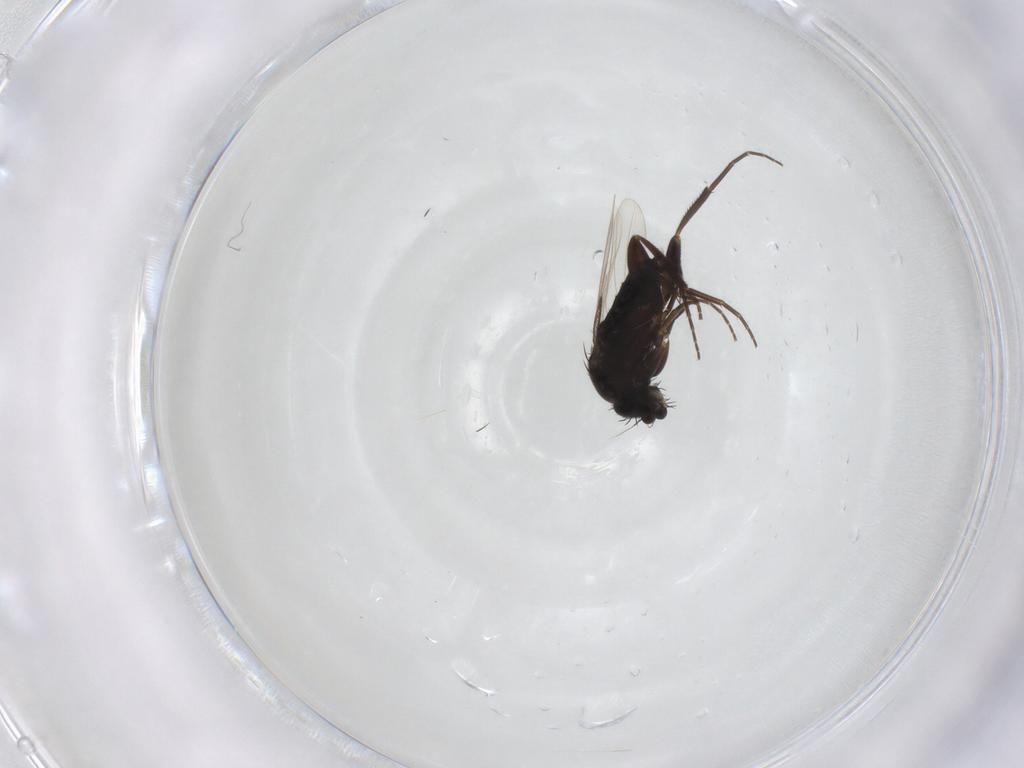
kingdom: Animalia
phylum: Arthropoda
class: Insecta
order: Diptera
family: Phoridae
